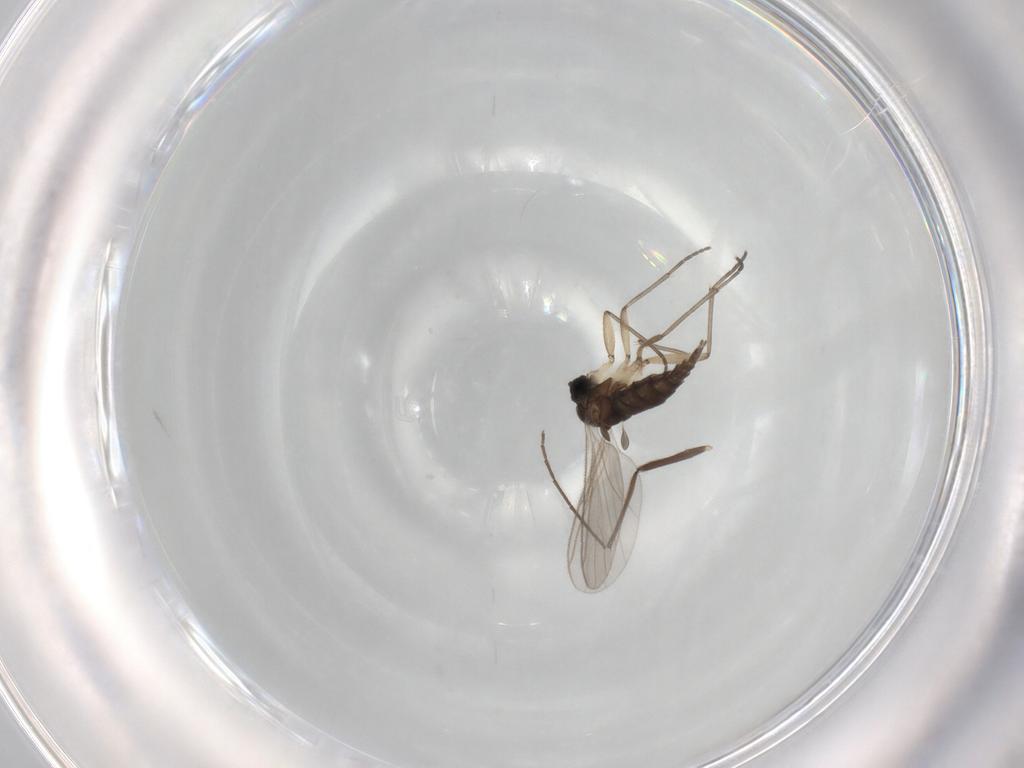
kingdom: Animalia
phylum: Arthropoda
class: Insecta
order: Diptera
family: Sciaridae
